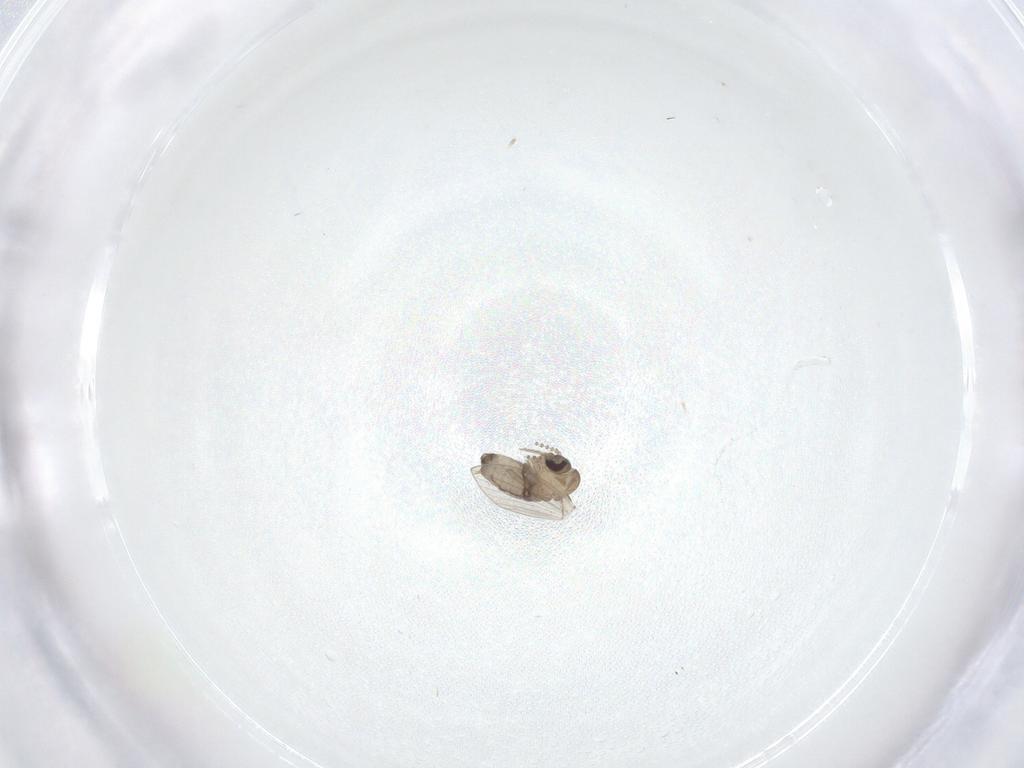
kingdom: Animalia
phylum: Arthropoda
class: Insecta
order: Diptera
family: Psychodidae
